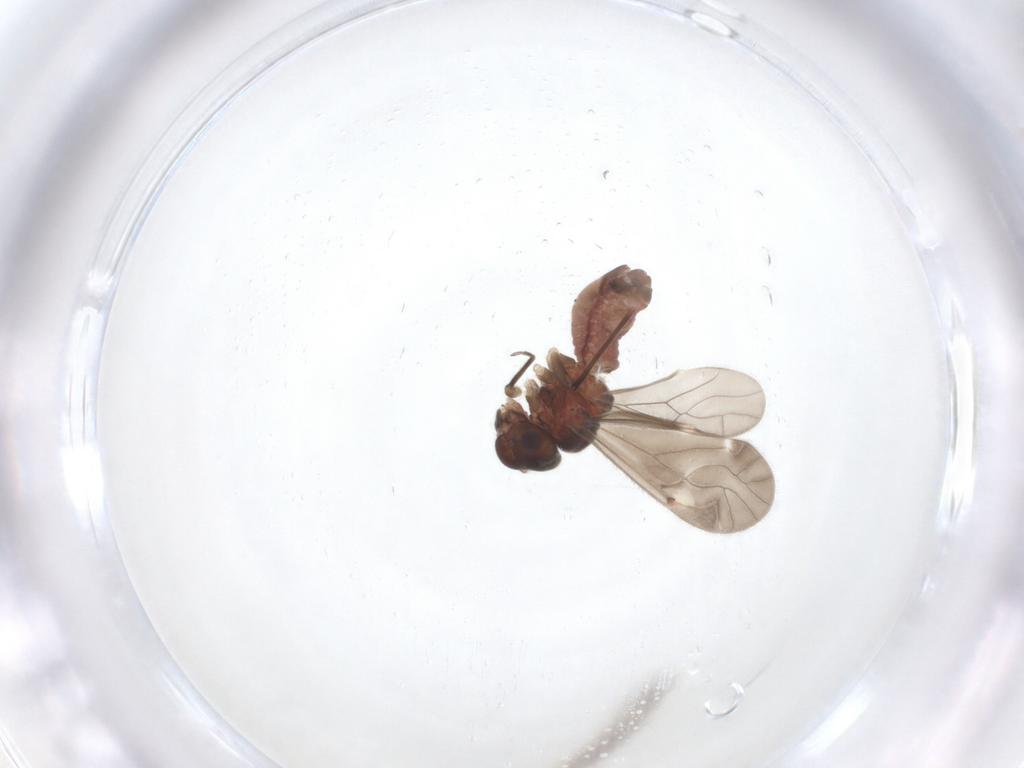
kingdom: Animalia
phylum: Arthropoda
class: Insecta
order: Psocodea
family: Caeciliusidae
